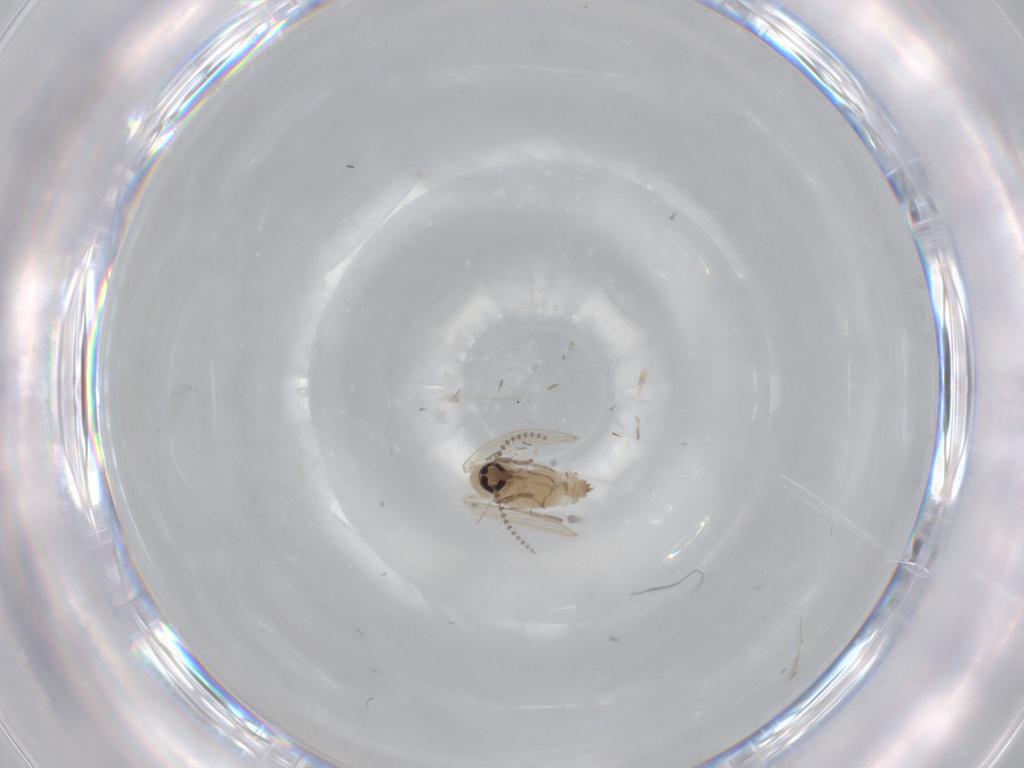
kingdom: Animalia
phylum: Arthropoda
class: Insecta
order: Diptera
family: Psychodidae
